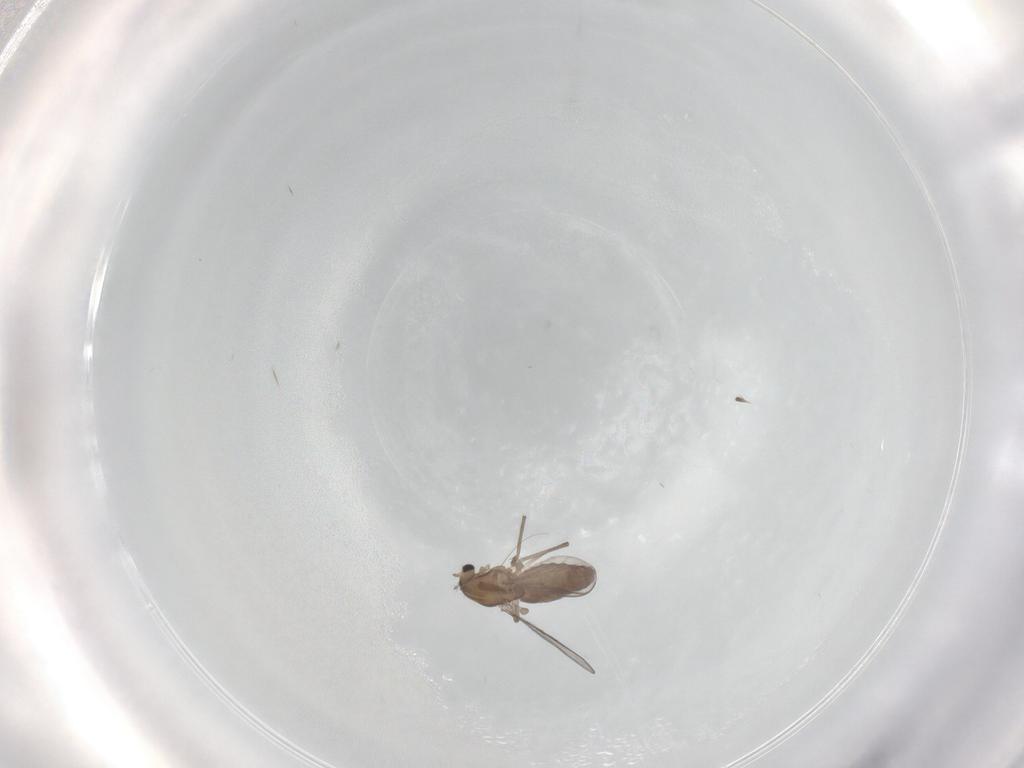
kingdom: Animalia
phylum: Arthropoda
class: Insecta
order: Diptera
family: Chironomidae
